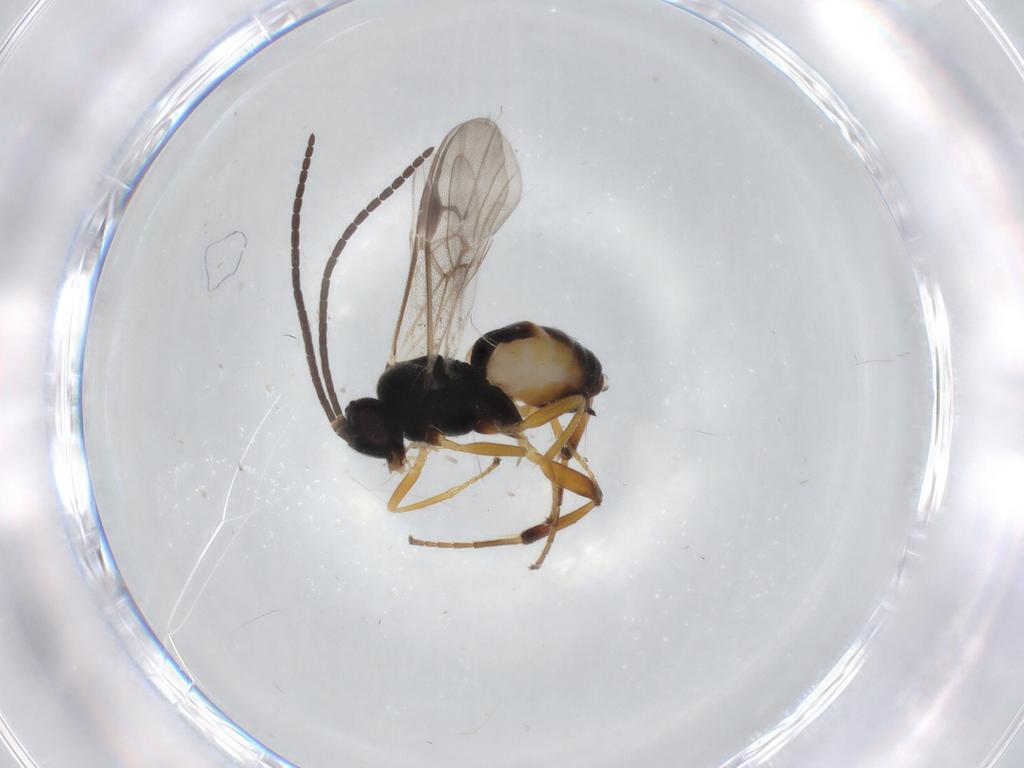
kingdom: Animalia
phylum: Arthropoda
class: Insecta
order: Hymenoptera
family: Braconidae
